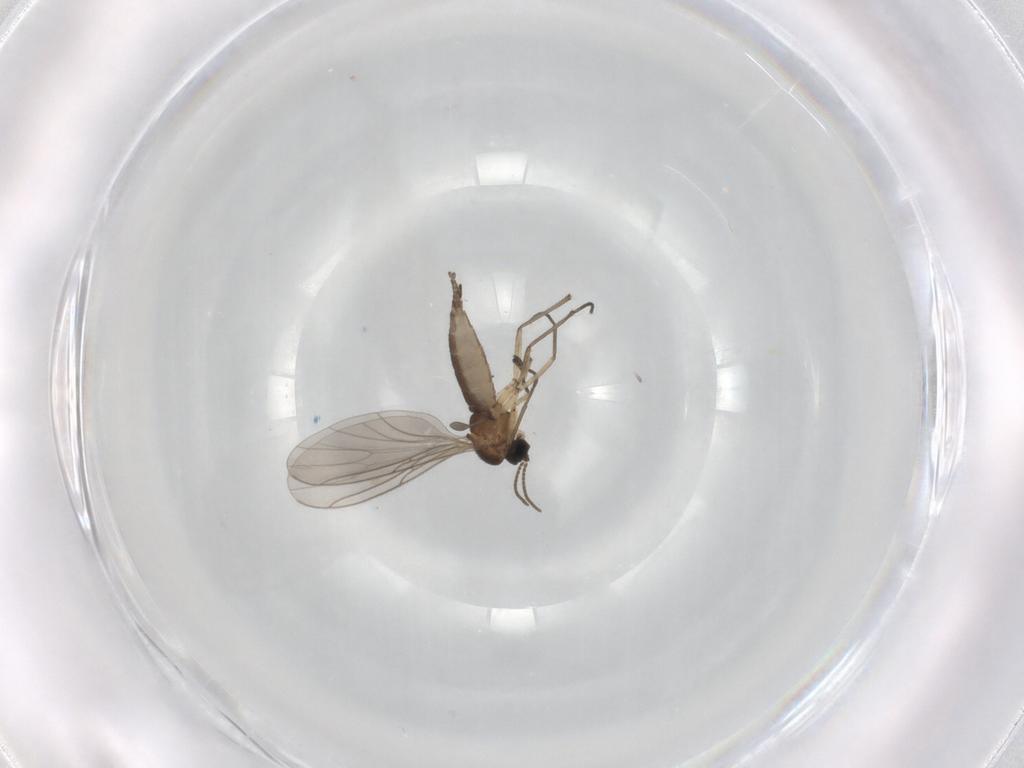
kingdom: Animalia
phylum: Arthropoda
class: Insecta
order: Diptera
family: Sciaridae
